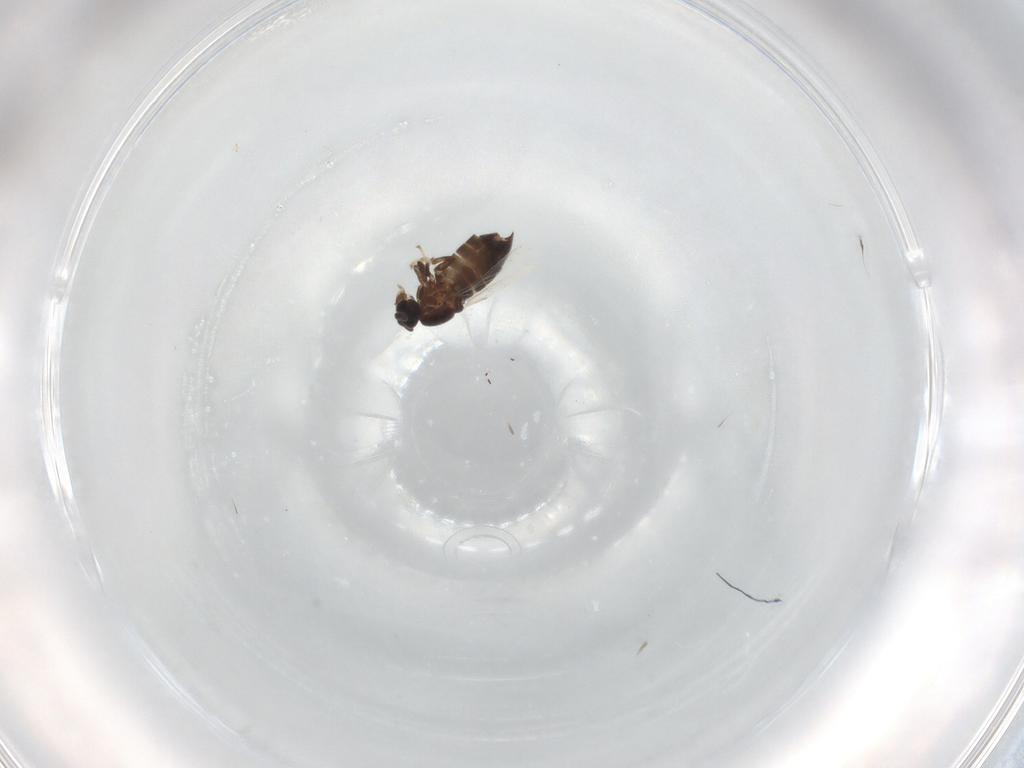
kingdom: Animalia
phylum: Arthropoda
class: Insecta
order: Diptera
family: Scatopsidae
